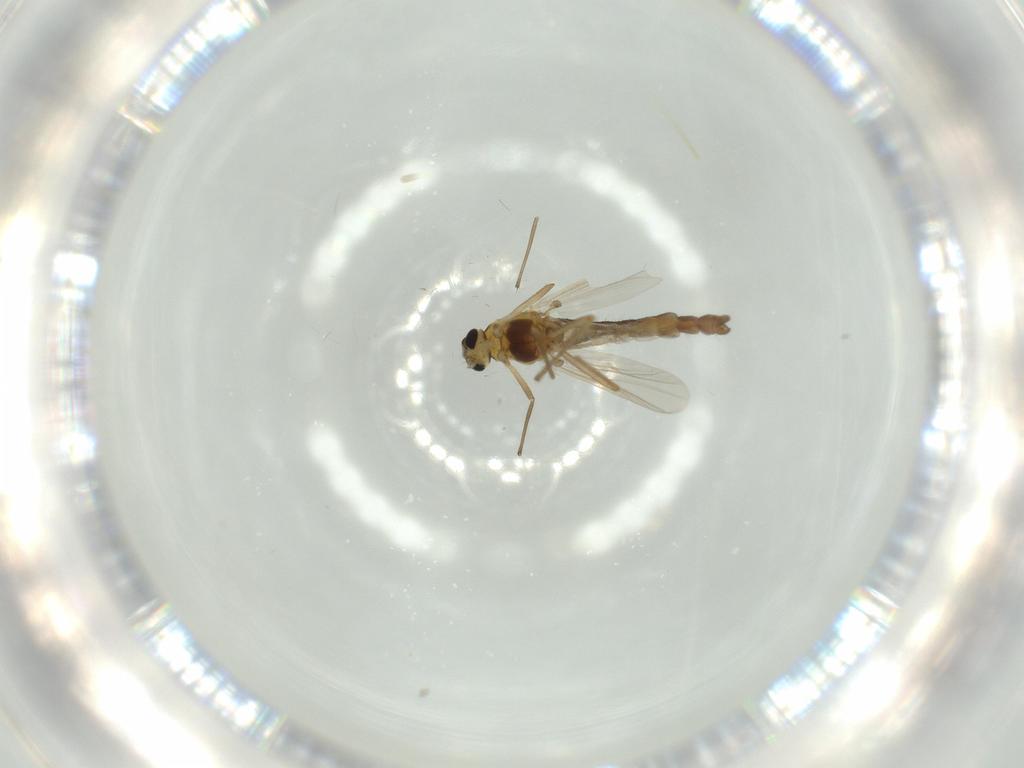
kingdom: Animalia
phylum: Arthropoda
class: Insecta
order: Diptera
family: Chironomidae
